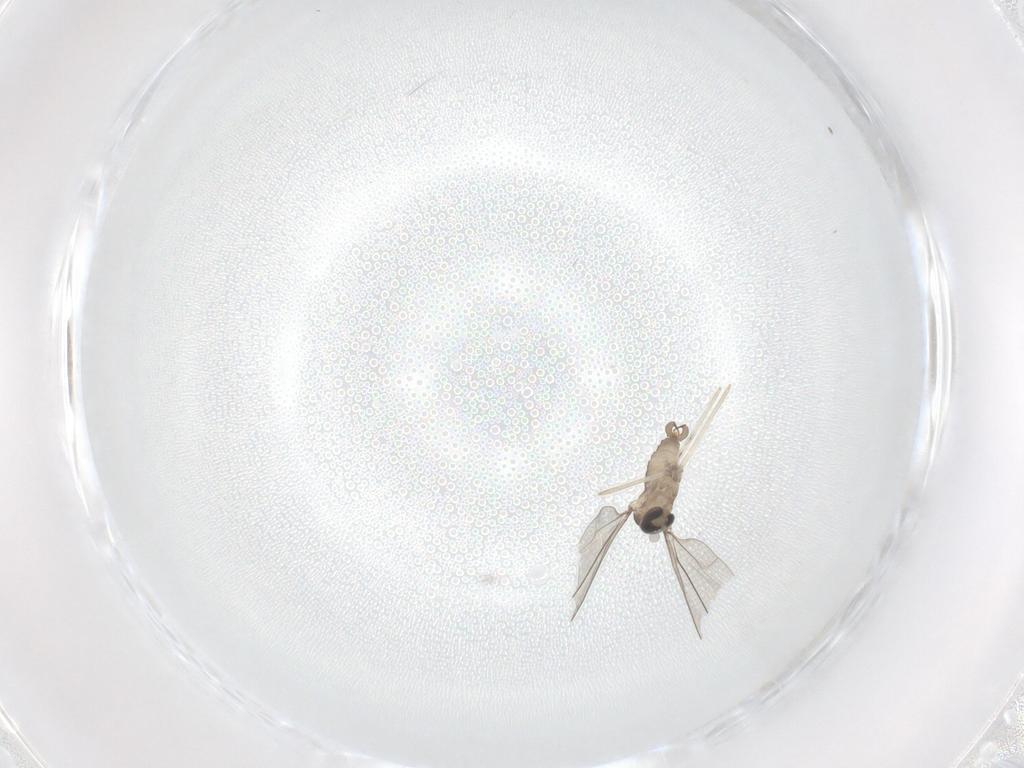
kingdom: Animalia
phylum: Arthropoda
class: Insecta
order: Diptera
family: Cecidomyiidae
